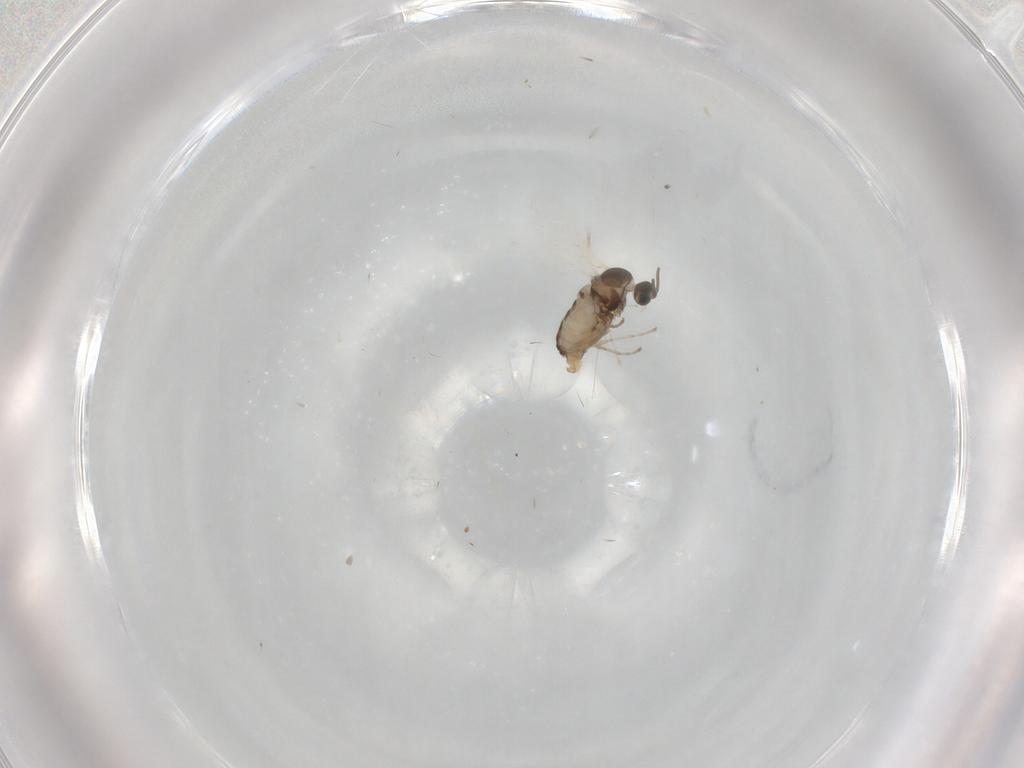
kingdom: Animalia
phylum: Arthropoda
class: Insecta
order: Diptera
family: Cecidomyiidae
